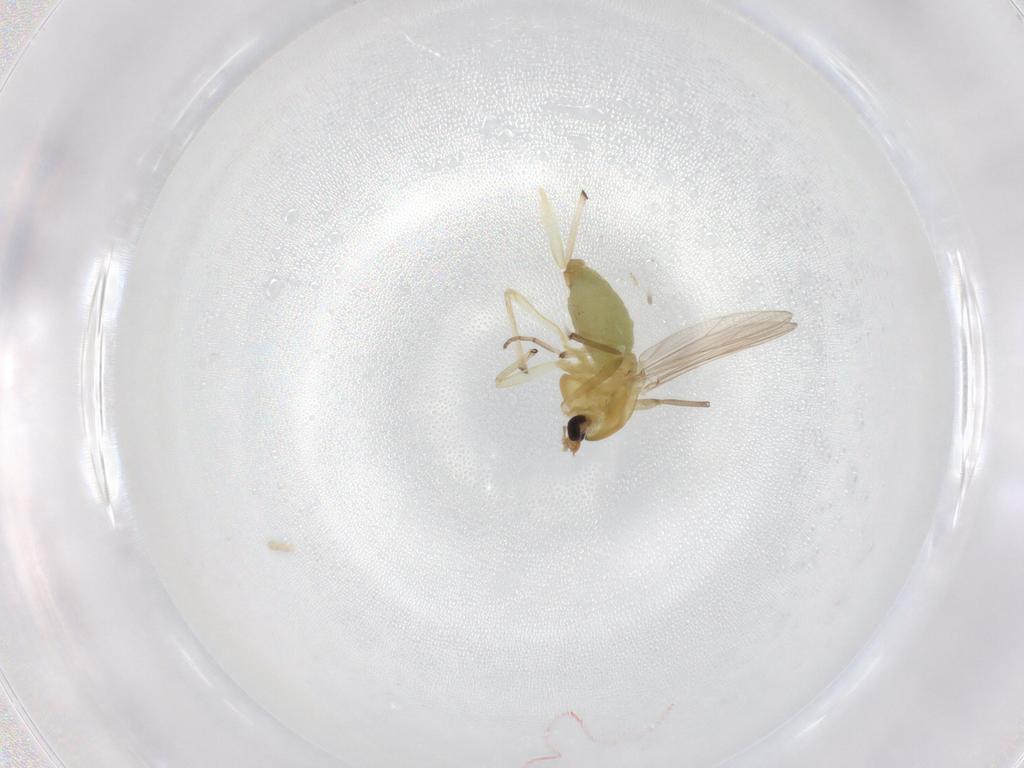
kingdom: Animalia
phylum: Arthropoda
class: Insecta
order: Diptera
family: Chironomidae
